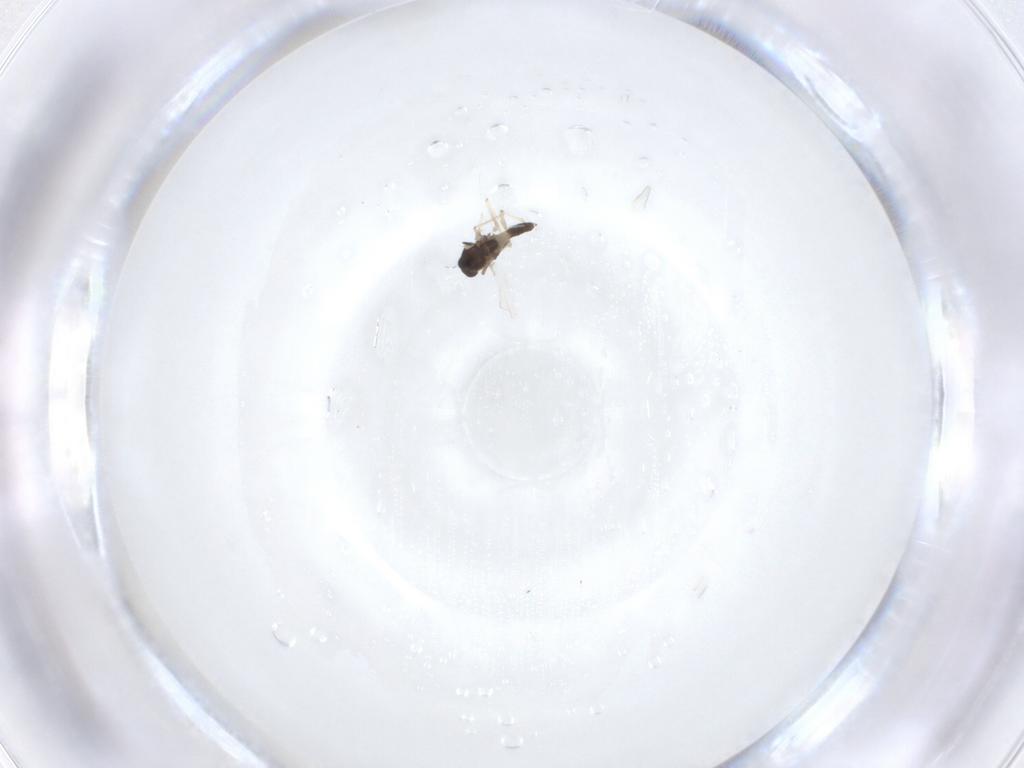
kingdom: Animalia
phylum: Arthropoda
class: Insecta
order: Diptera
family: Chironomidae
